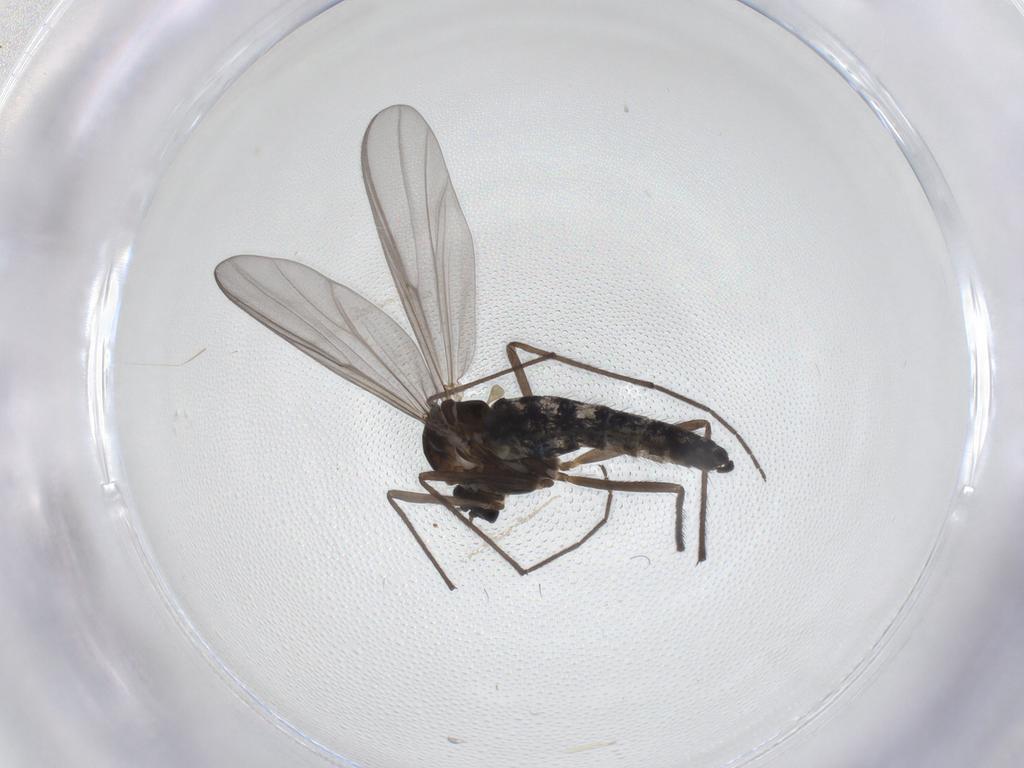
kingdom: Animalia
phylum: Arthropoda
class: Insecta
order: Diptera
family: Chironomidae
